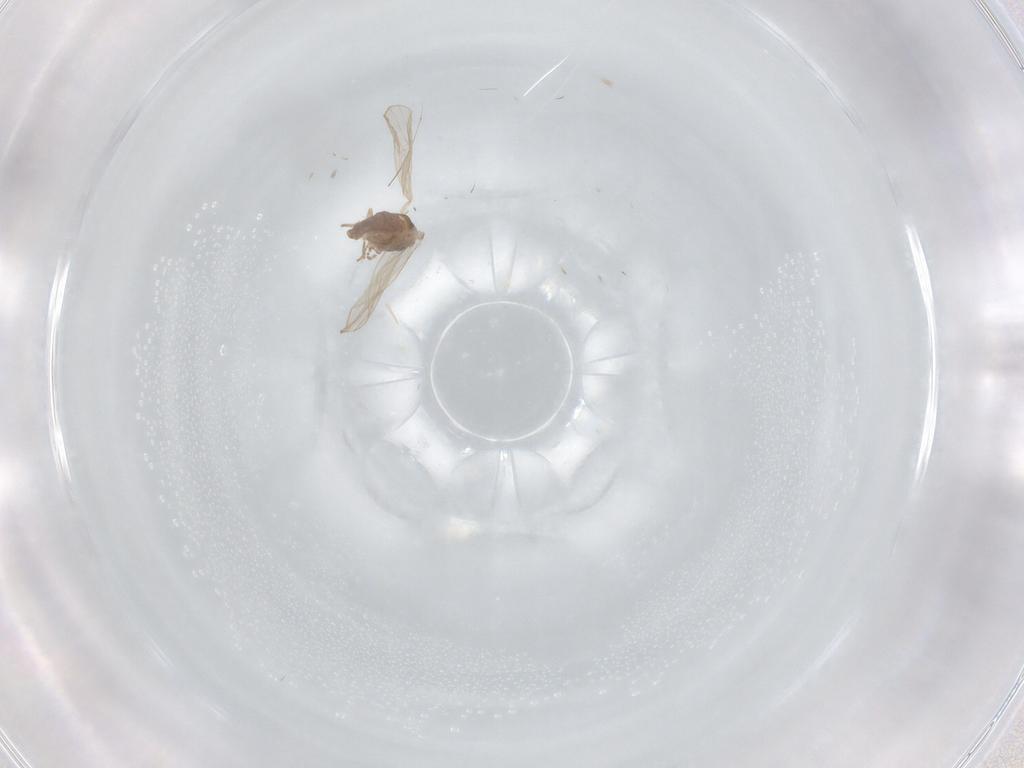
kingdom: Animalia
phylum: Arthropoda
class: Insecta
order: Diptera
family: Psychodidae
